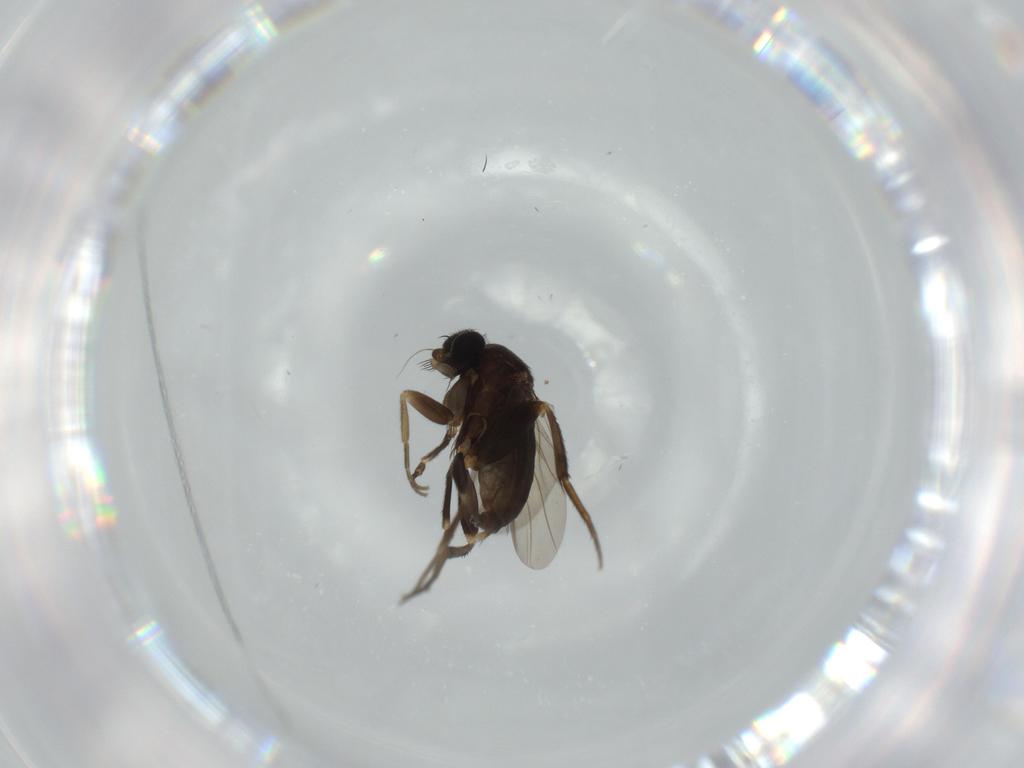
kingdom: Animalia
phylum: Arthropoda
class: Insecta
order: Diptera
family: Phoridae
